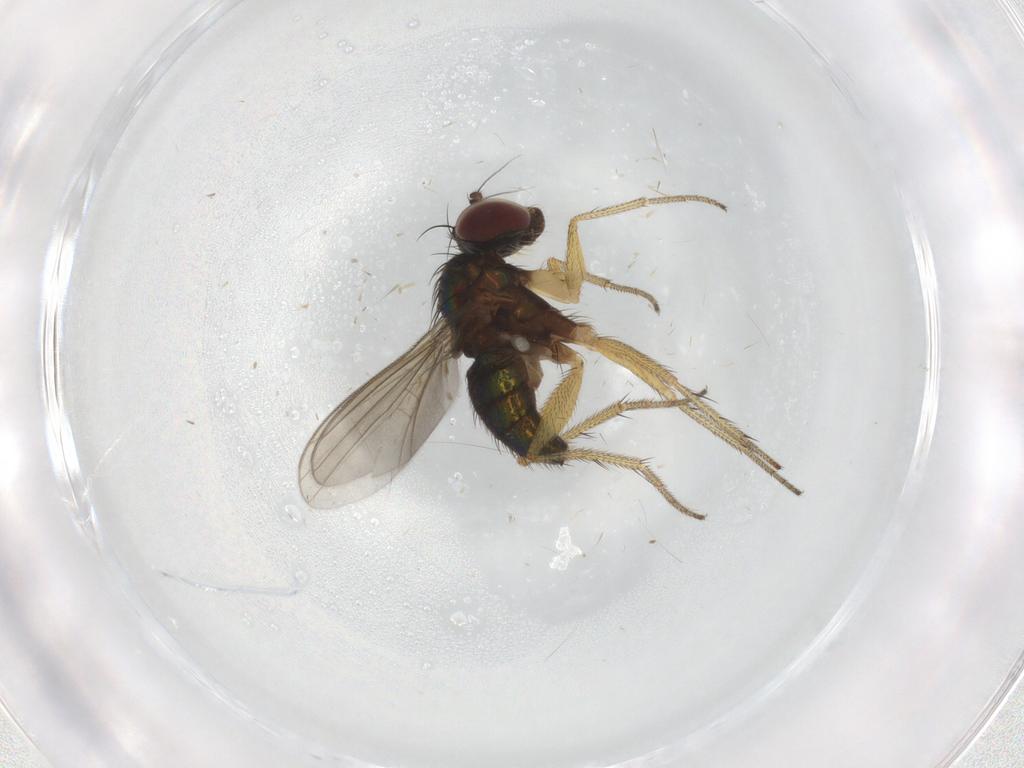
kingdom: Animalia
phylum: Arthropoda
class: Insecta
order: Diptera
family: Dolichopodidae
